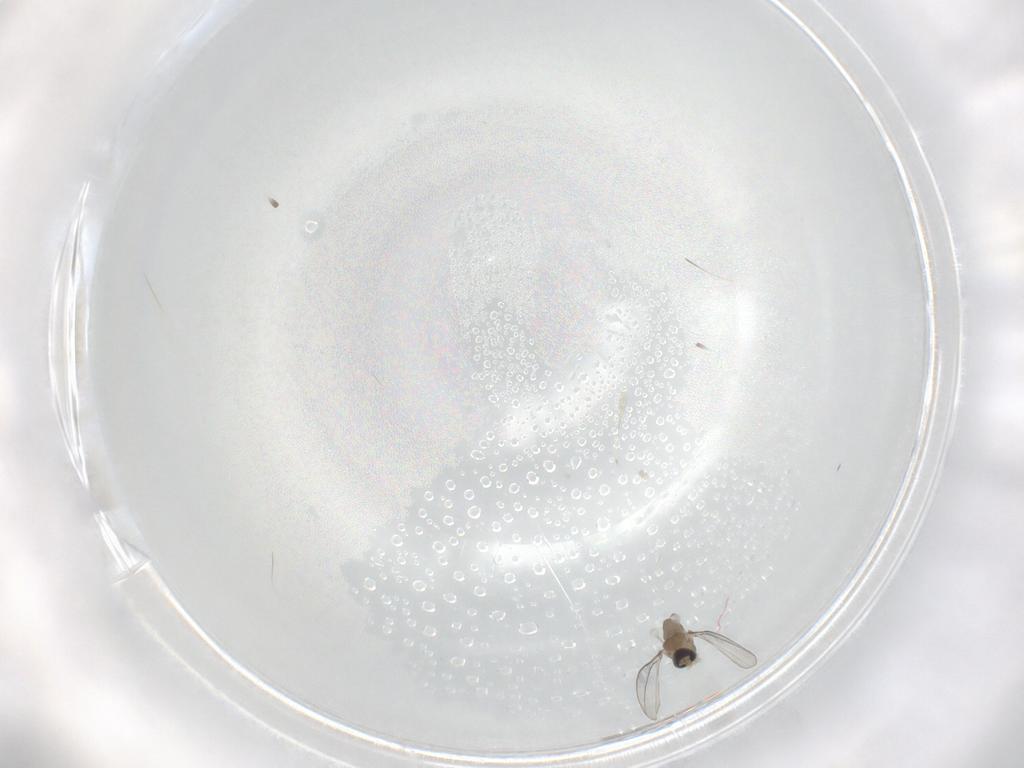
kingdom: Animalia
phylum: Arthropoda
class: Insecta
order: Diptera
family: Cecidomyiidae
